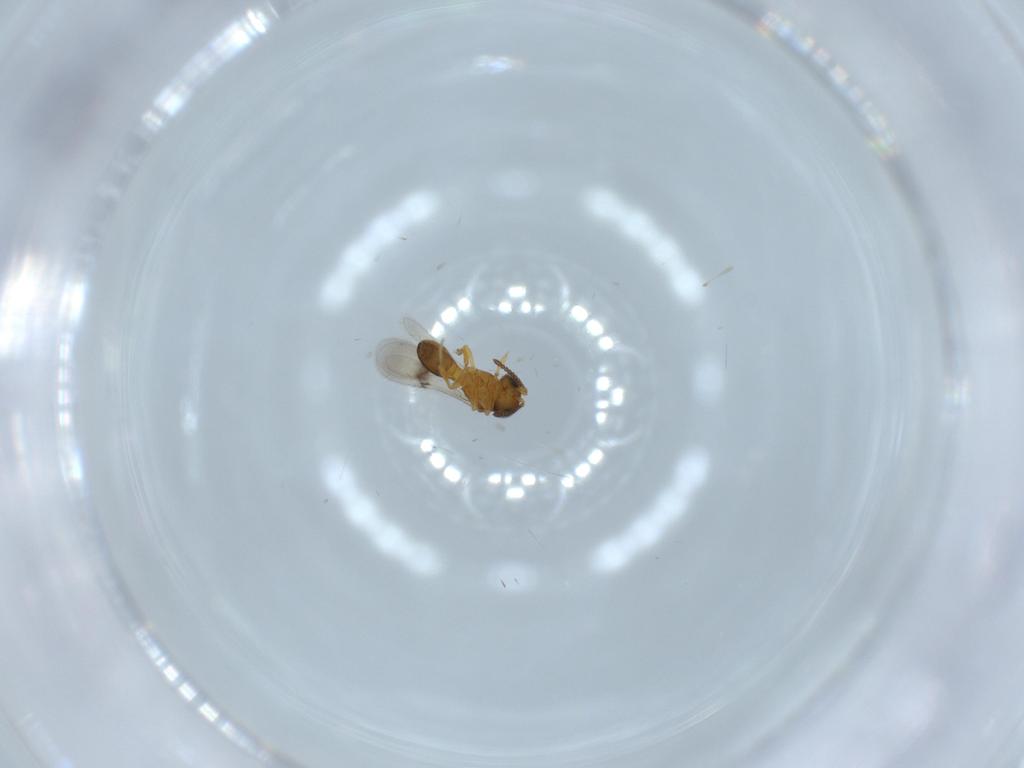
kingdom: Animalia
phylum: Arthropoda
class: Insecta
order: Hymenoptera
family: Scelionidae
